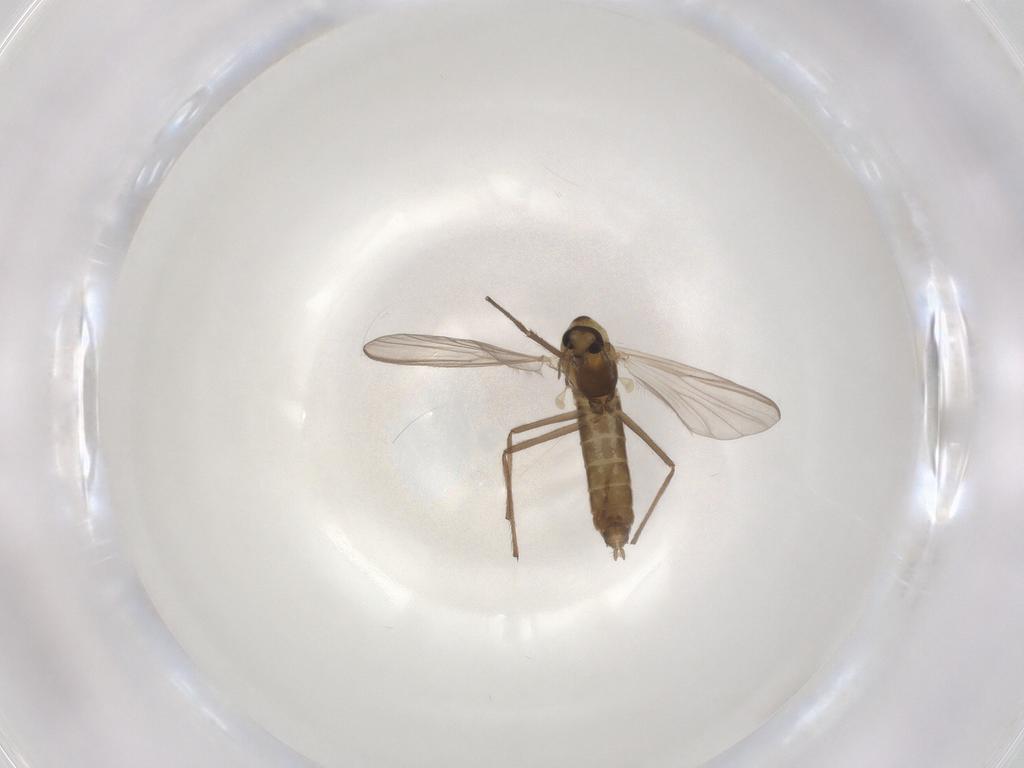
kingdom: Animalia
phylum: Arthropoda
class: Insecta
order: Diptera
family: Chironomidae
